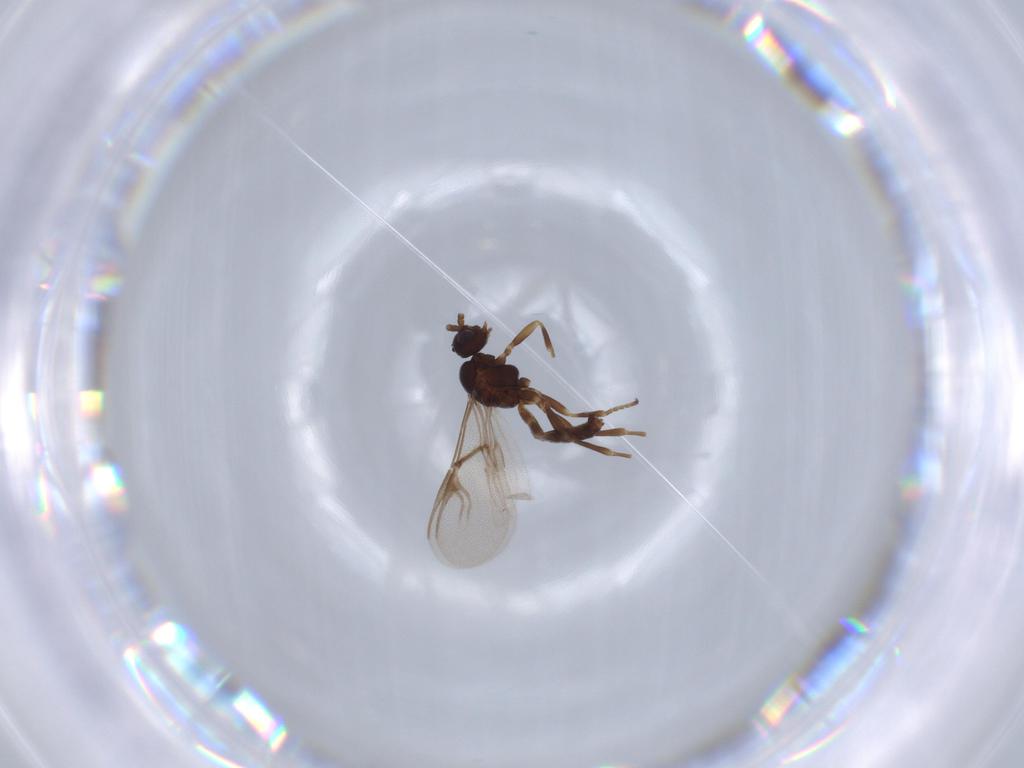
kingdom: Animalia
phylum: Arthropoda
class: Insecta
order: Hymenoptera
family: Braconidae
